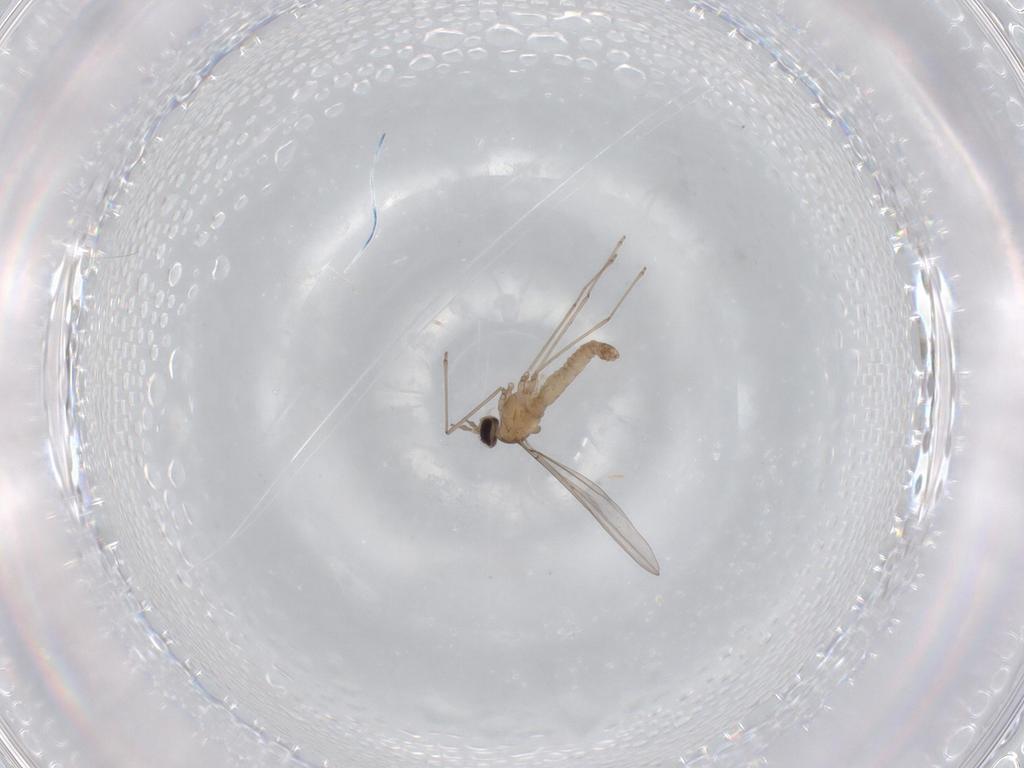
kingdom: Animalia
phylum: Arthropoda
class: Insecta
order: Diptera
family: Cecidomyiidae
